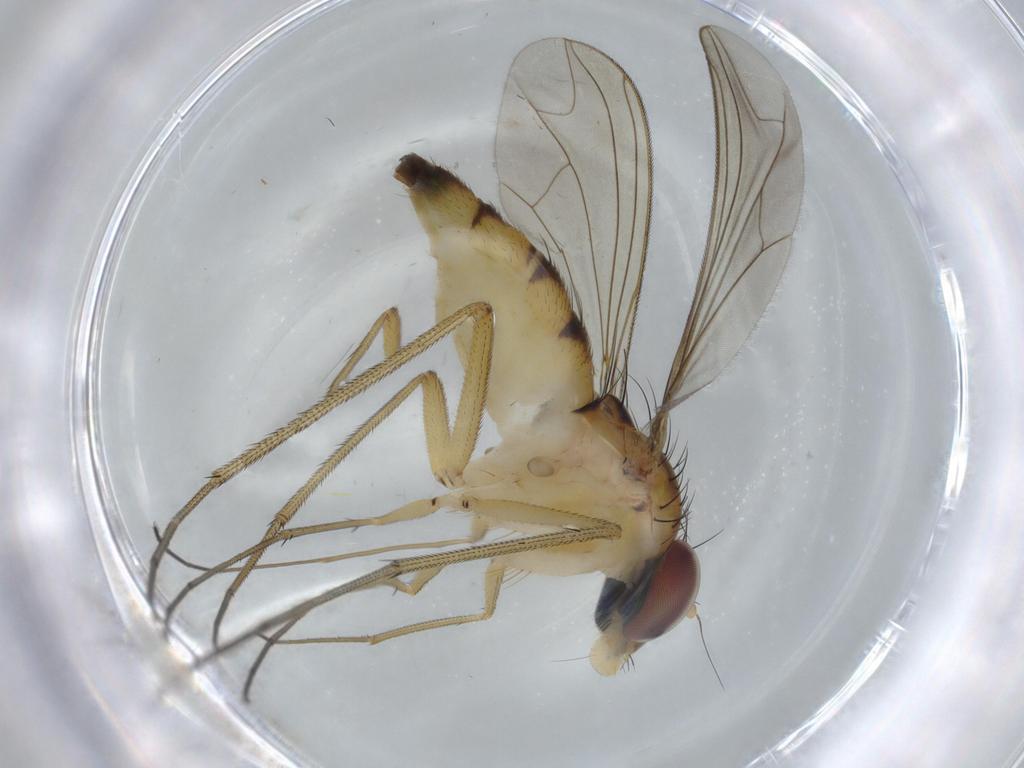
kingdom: Animalia
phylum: Arthropoda
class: Insecta
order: Diptera
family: Dolichopodidae
